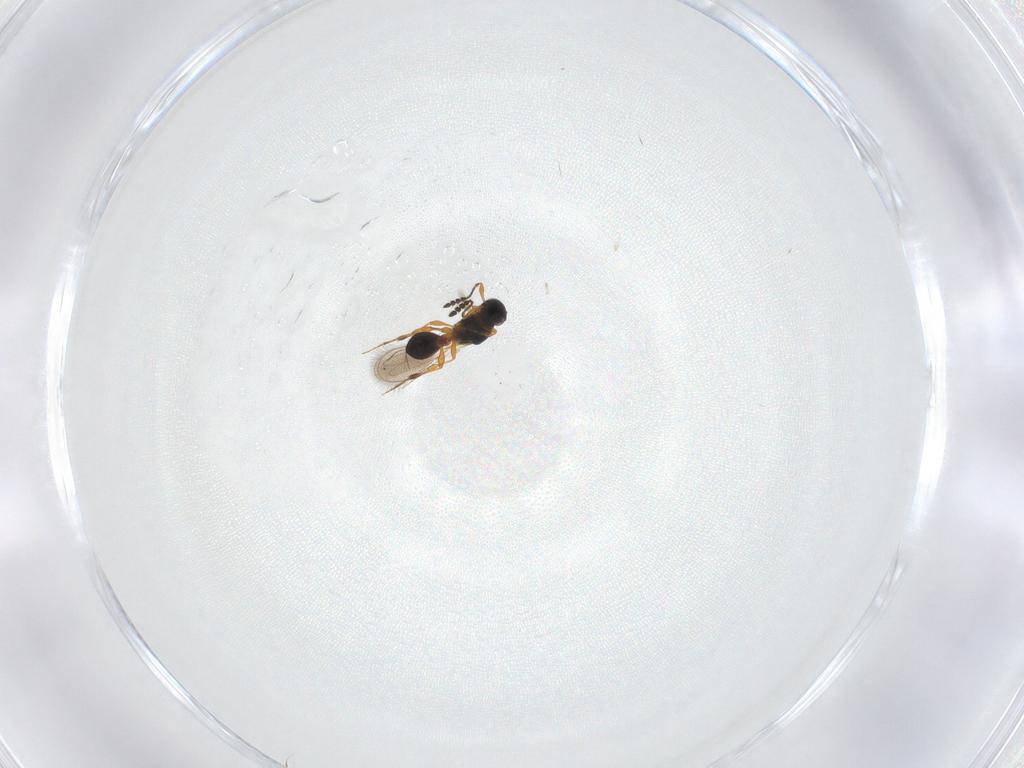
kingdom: Animalia
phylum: Arthropoda
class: Insecta
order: Hymenoptera
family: Platygastridae
